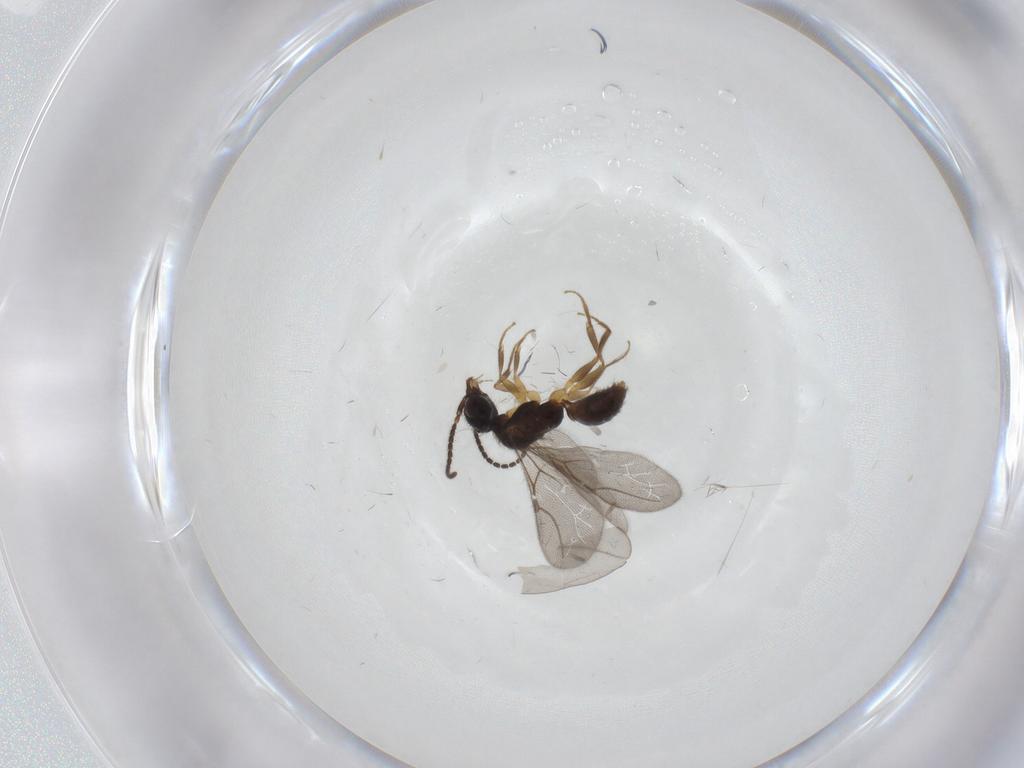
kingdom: Animalia
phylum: Arthropoda
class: Insecta
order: Hymenoptera
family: Bethylidae
